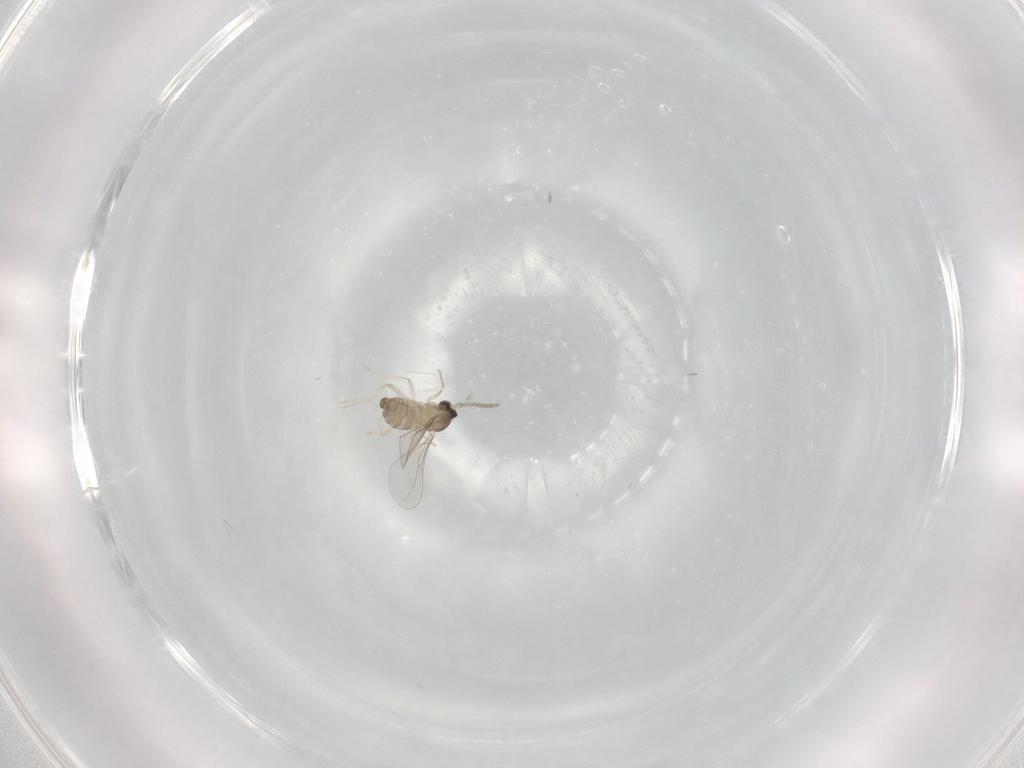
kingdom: Animalia
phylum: Arthropoda
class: Insecta
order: Diptera
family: Cecidomyiidae
